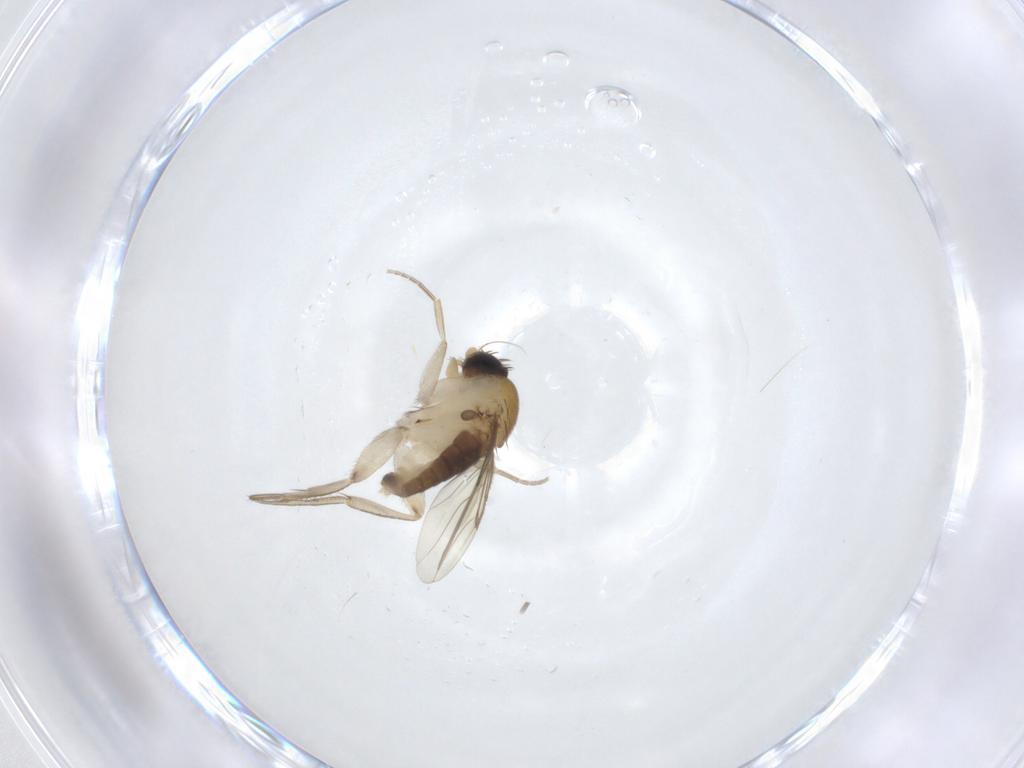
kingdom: Animalia
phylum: Arthropoda
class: Insecta
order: Diptera
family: Phoridae
